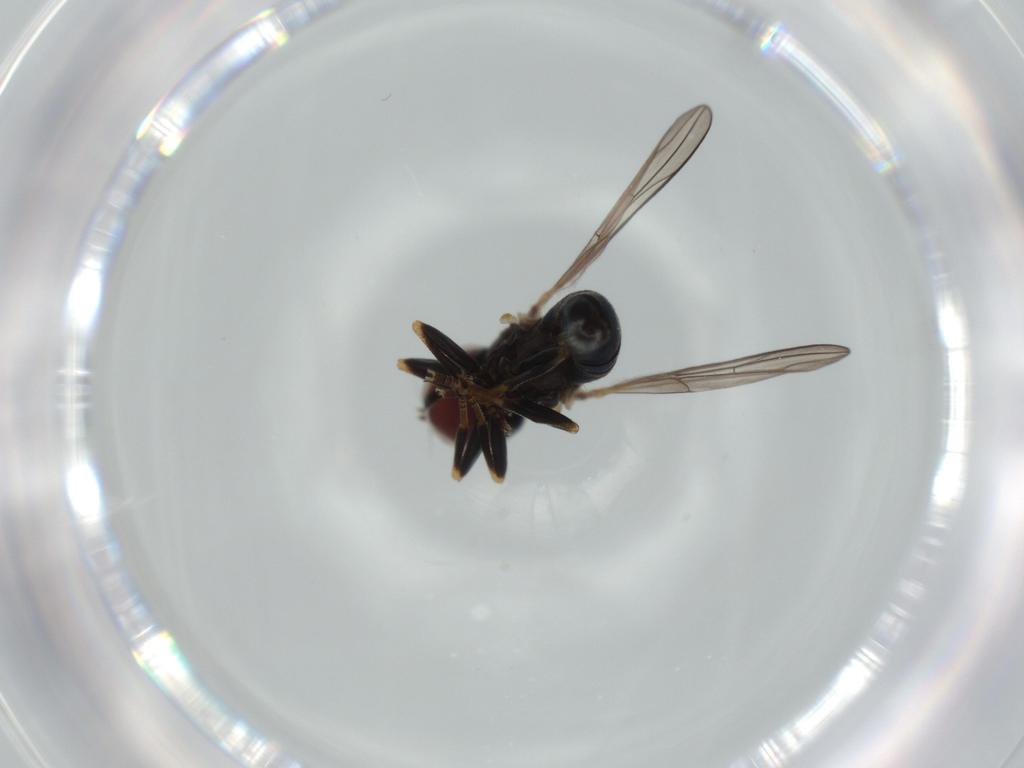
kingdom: Animalia
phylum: Arthropoda
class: Insecta
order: Diptera
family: Pipunculidae
